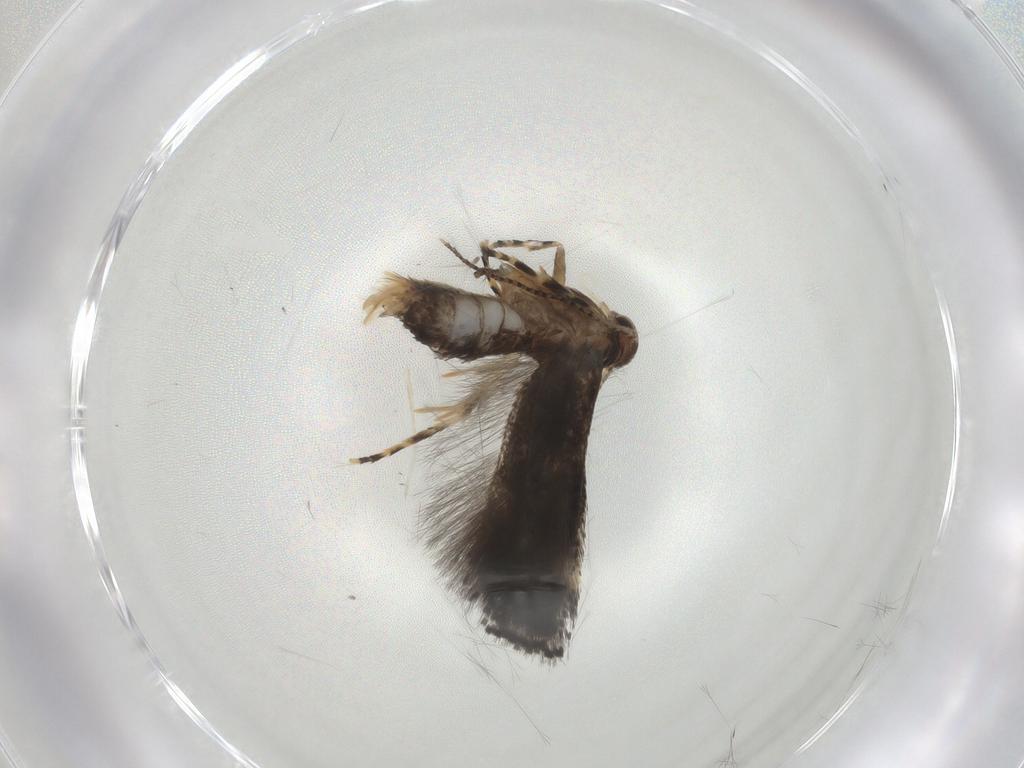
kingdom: Animalia
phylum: Arthropoda
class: Insecta
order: Lepidoptera
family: Elachistidae
